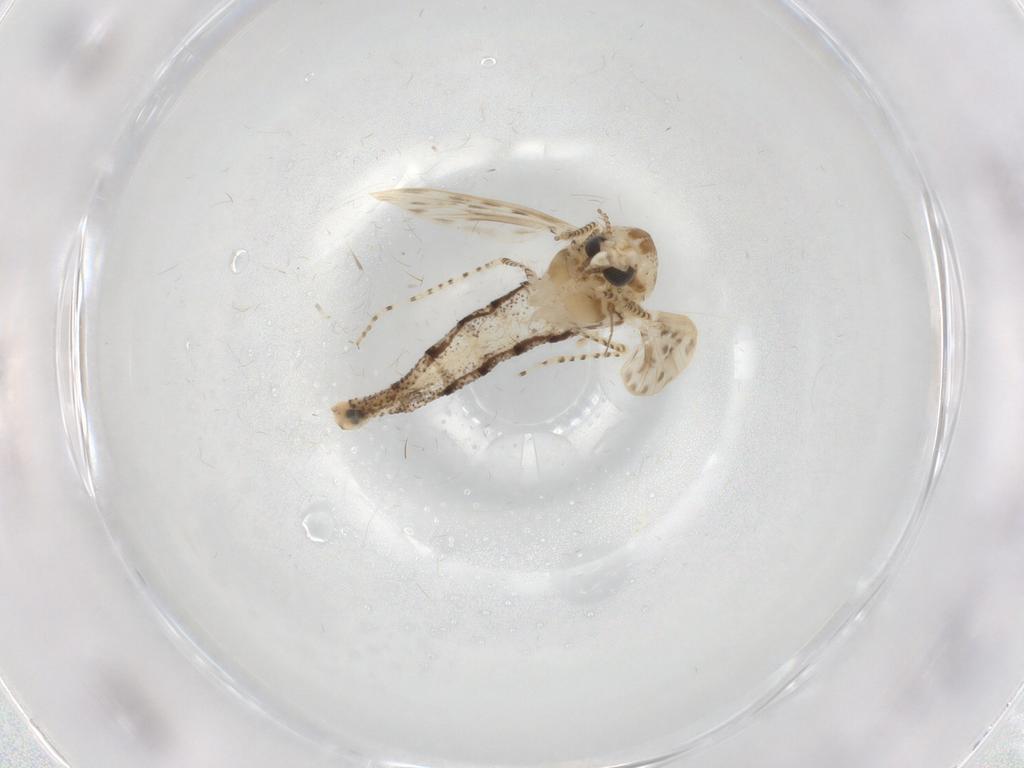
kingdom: Animalia
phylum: Arthropoda
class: Insecta
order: Diptera
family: Chaoboridae
